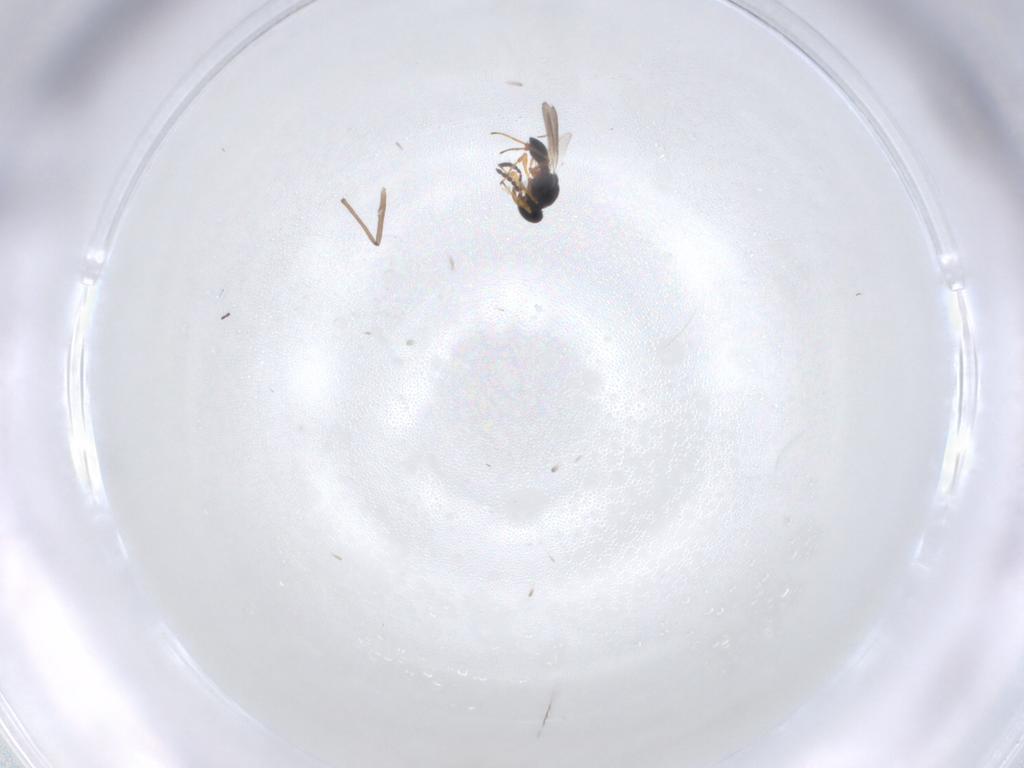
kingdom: Animalia
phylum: Arthropoda
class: Insecta
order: Hymenoptera
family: Platygastridae
